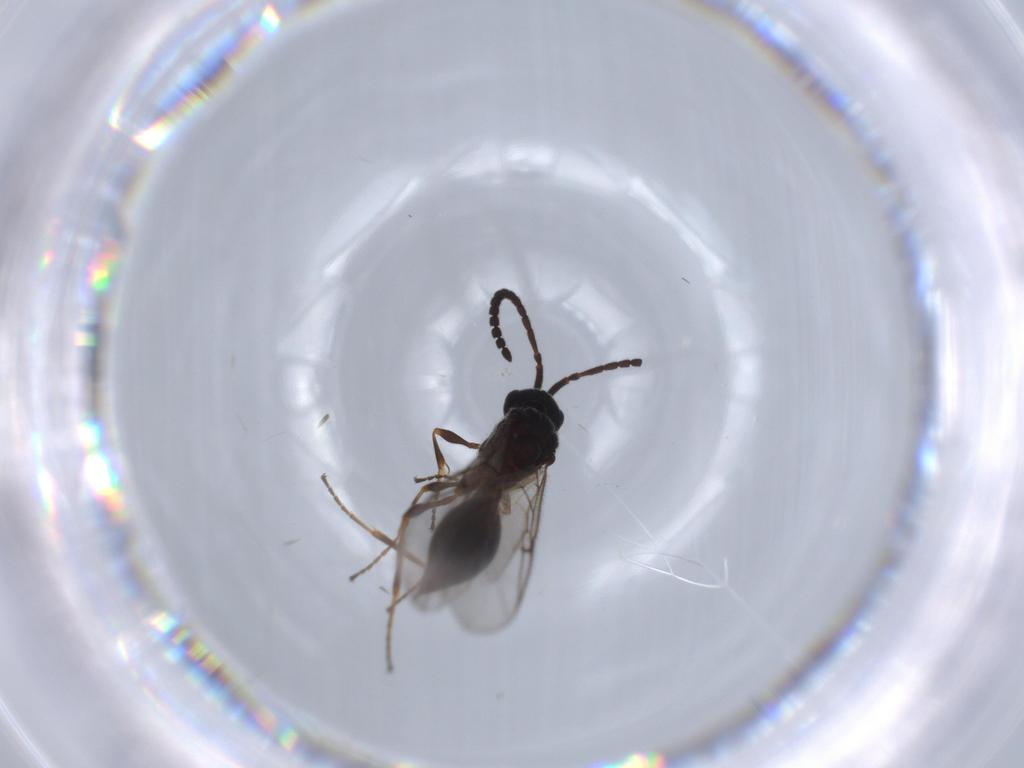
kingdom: Animalia
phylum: Arthropoda
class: Insecta
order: Hymenoptera
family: Diapriidae
